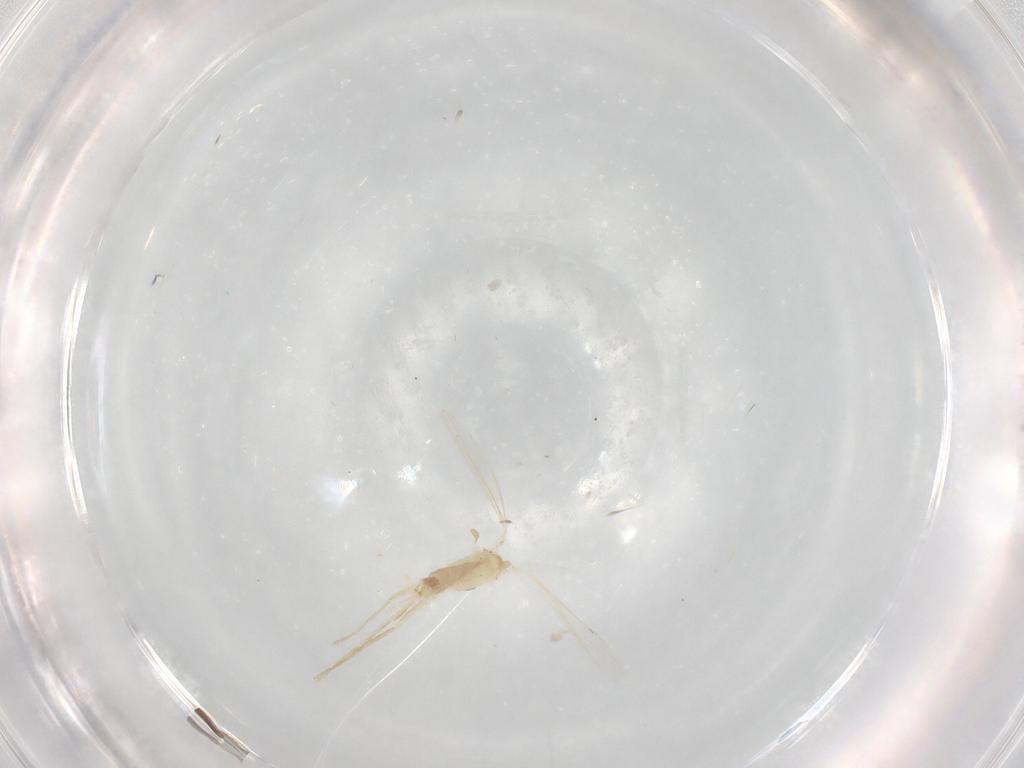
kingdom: Animalia
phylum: Arthropoda
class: Insecta
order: Diptera
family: Psychodidae
